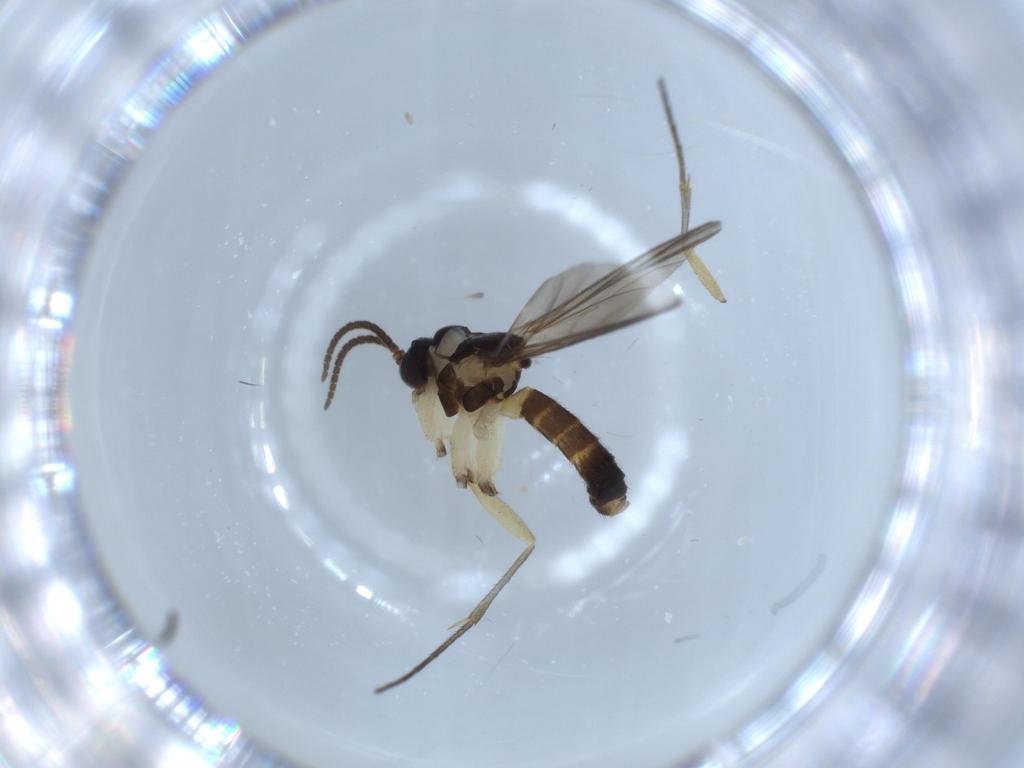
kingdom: Animalia
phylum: Arthropoda
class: Insecta
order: Diptera
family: Mycetophilidae
